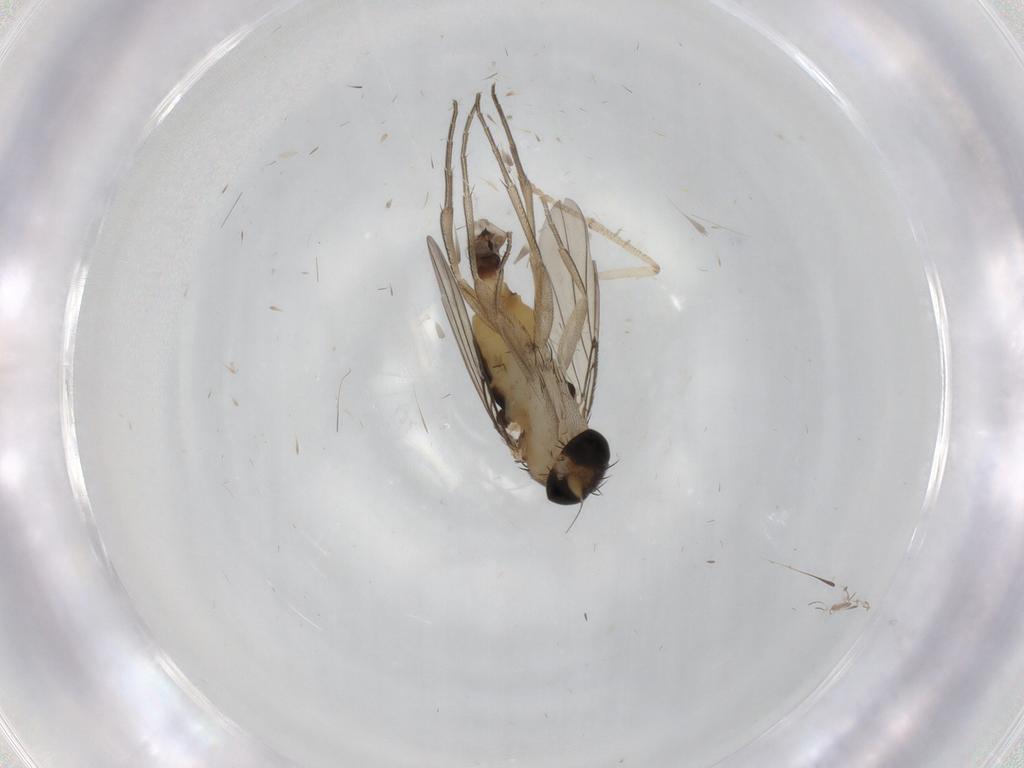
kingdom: Animalia
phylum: Arthropoda
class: Insecta
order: Diptera
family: Phoridae
